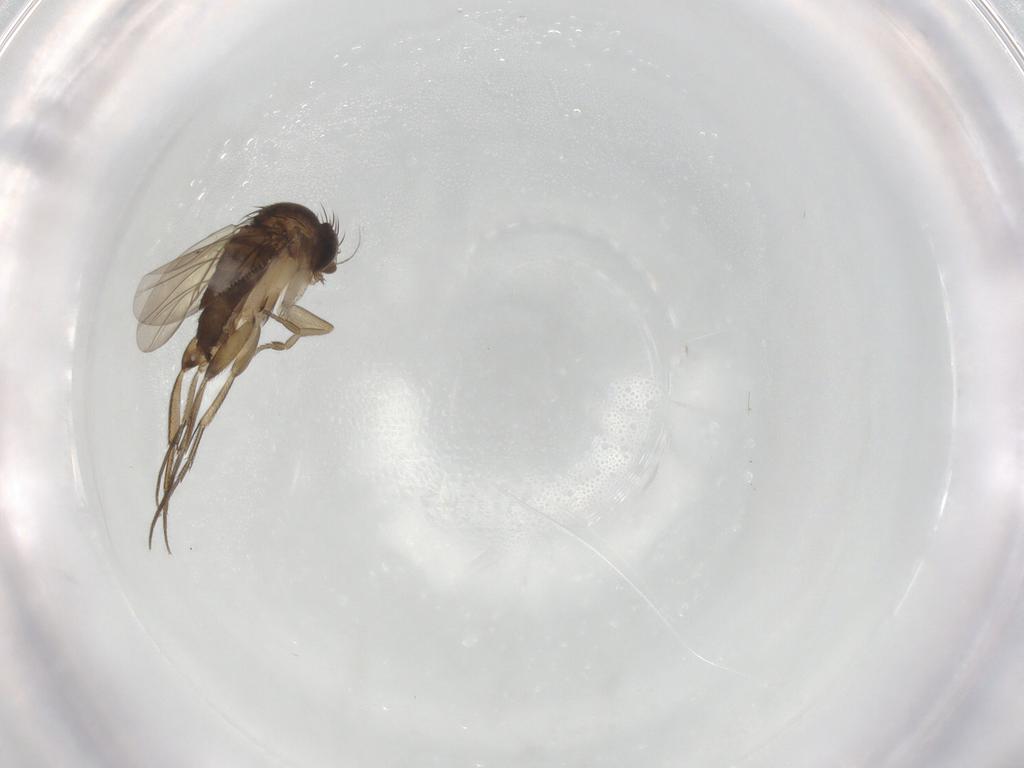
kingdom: Animalia
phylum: Arthropoda
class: Insecta
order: Diptera
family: Phoridae
